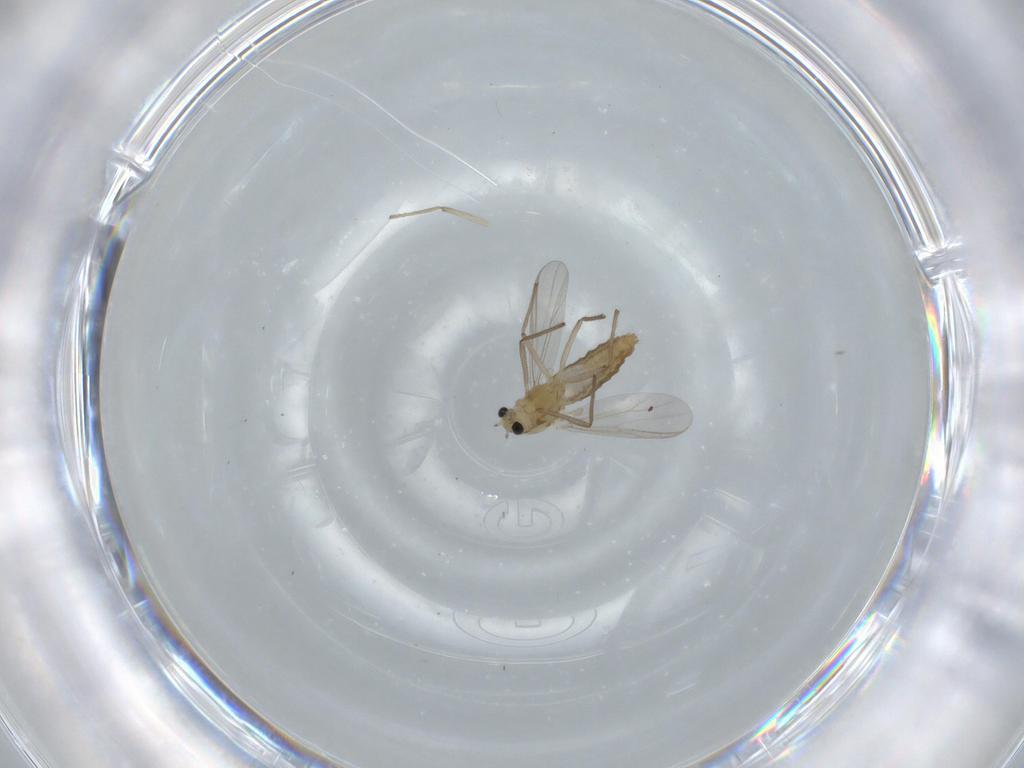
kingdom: Animalia
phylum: Arthropoda
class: Insecta
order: Diptera
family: Chironomidae
